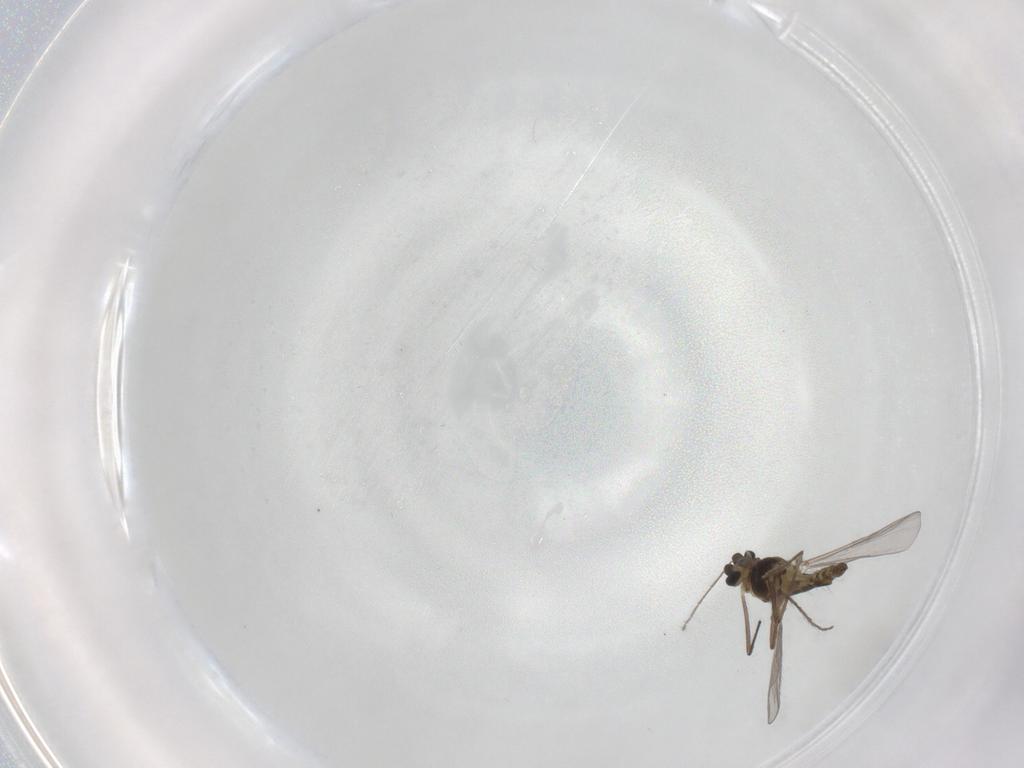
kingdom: Animalia
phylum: Arthropoda
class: Insecta
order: Diptera
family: Chironomidae
